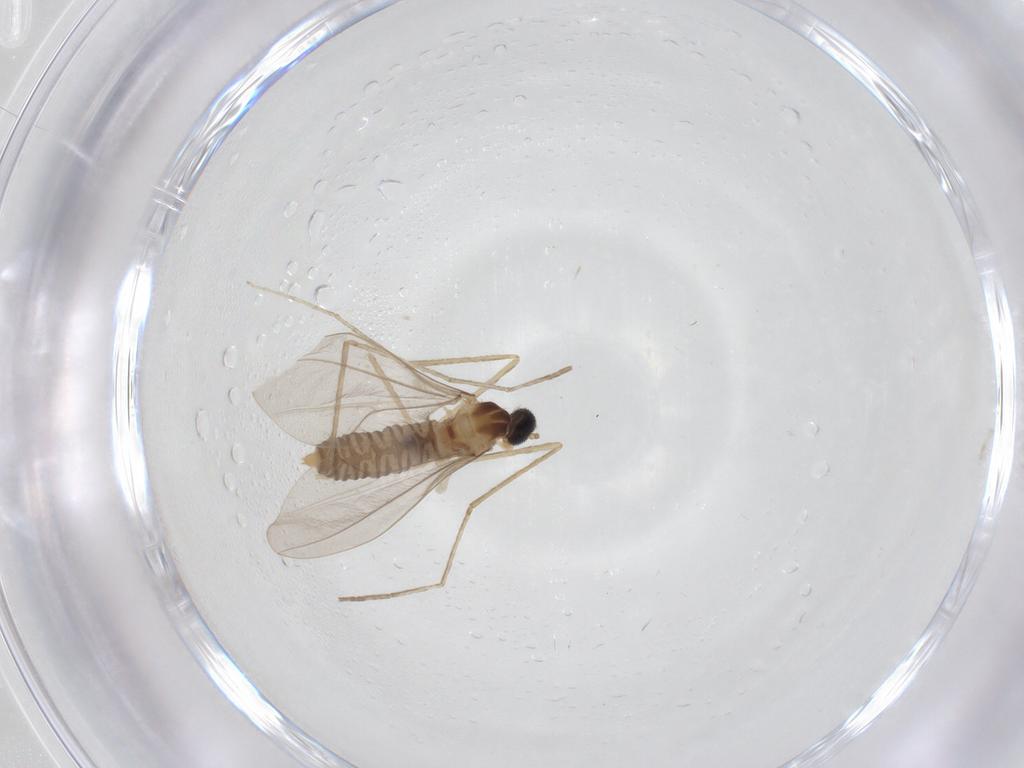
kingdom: Animalia
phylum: Arthropoda
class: Insecta
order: Diptera
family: Cecidomyiidae
